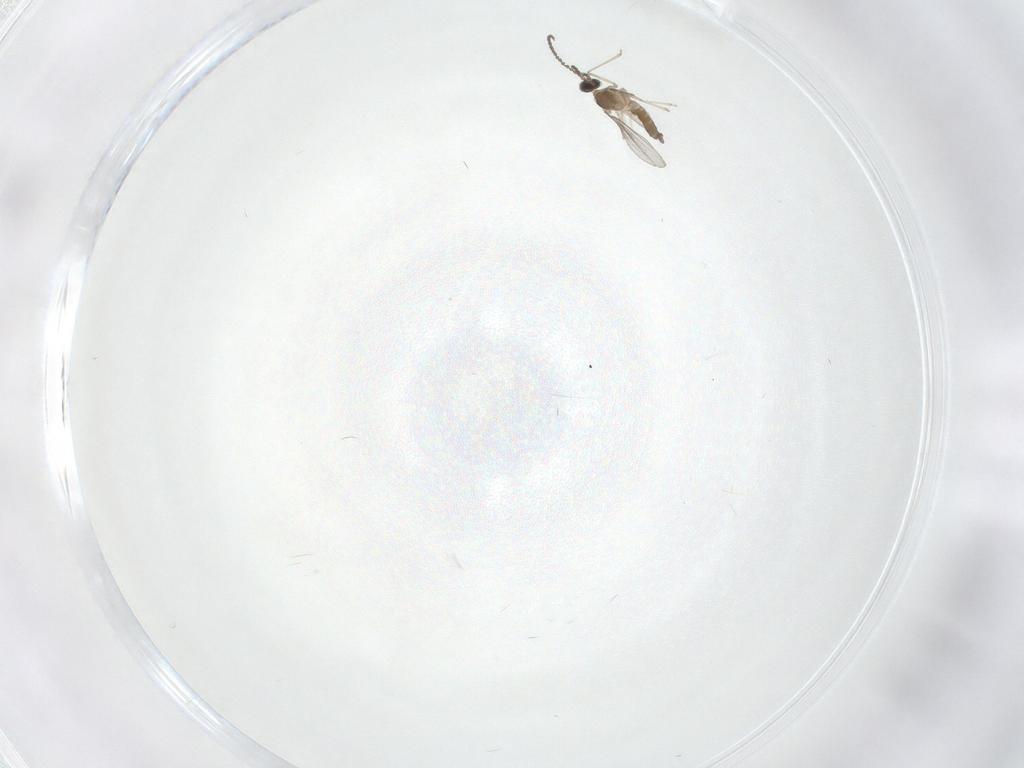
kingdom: Animalia
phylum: Arthropoda
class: Insecta
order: Diptera
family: Cecidomyiidae
